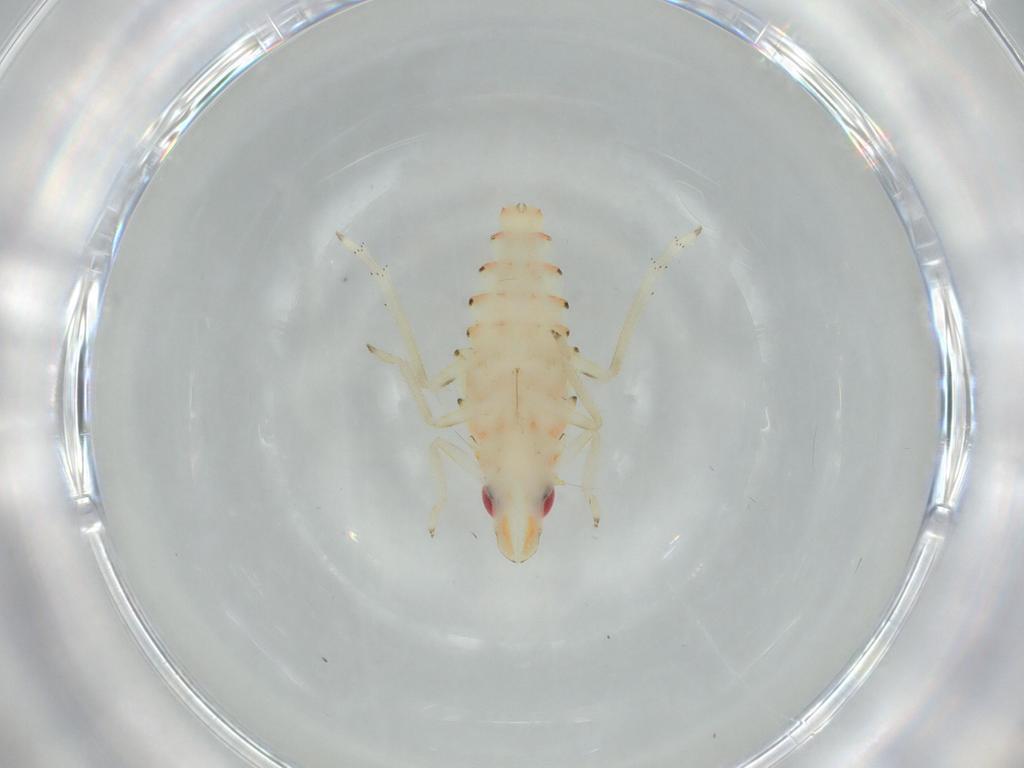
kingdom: Animalia
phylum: Arthropoda
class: Insecta
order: Hemiptera
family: Tropiduchidae
